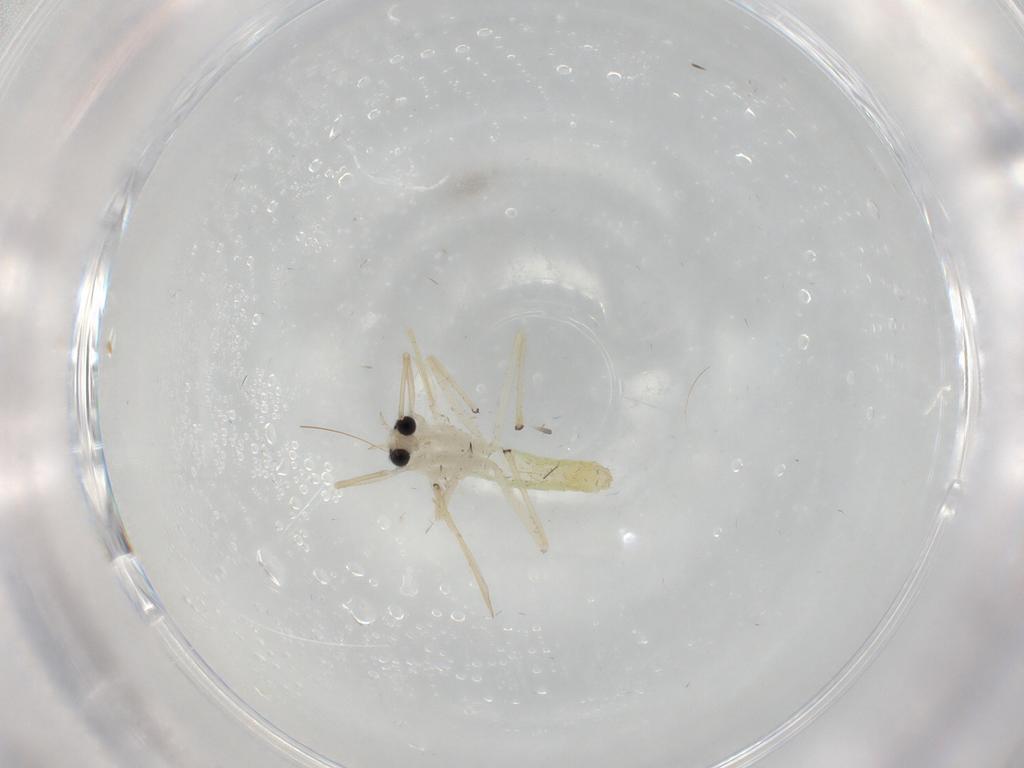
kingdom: Animalia
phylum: Arthropoda
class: Insecta
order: Diptera
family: Chironomidae
